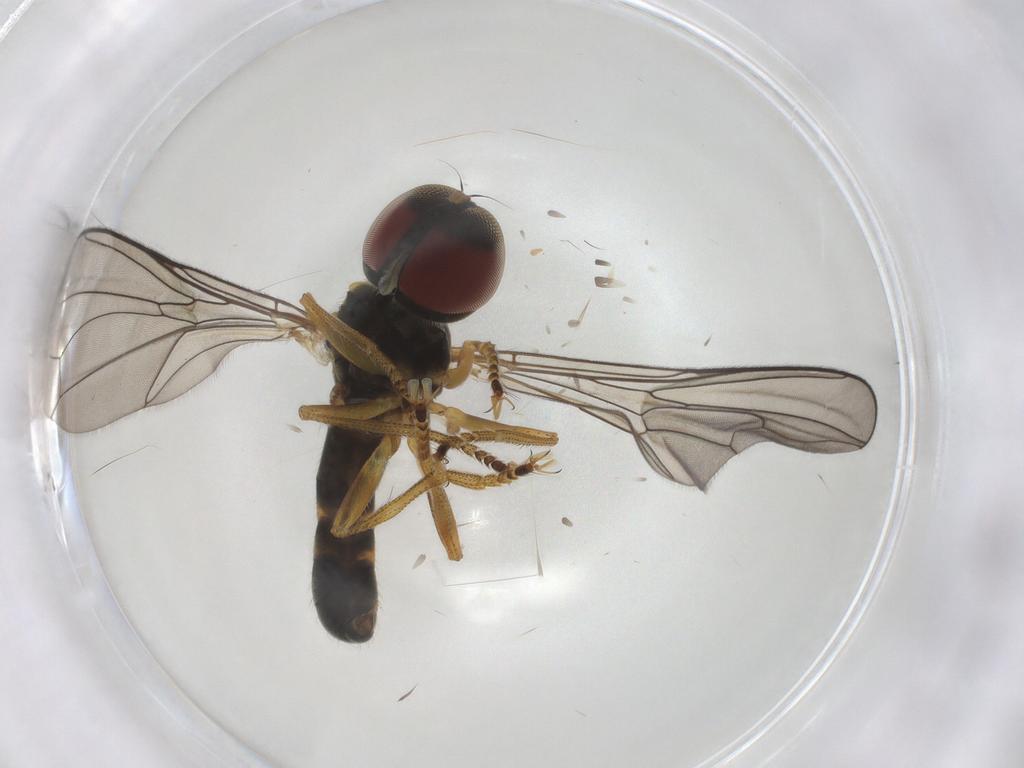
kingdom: Animalia
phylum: Arthropoda
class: Insecta
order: Diptera
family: Pipunculidae
